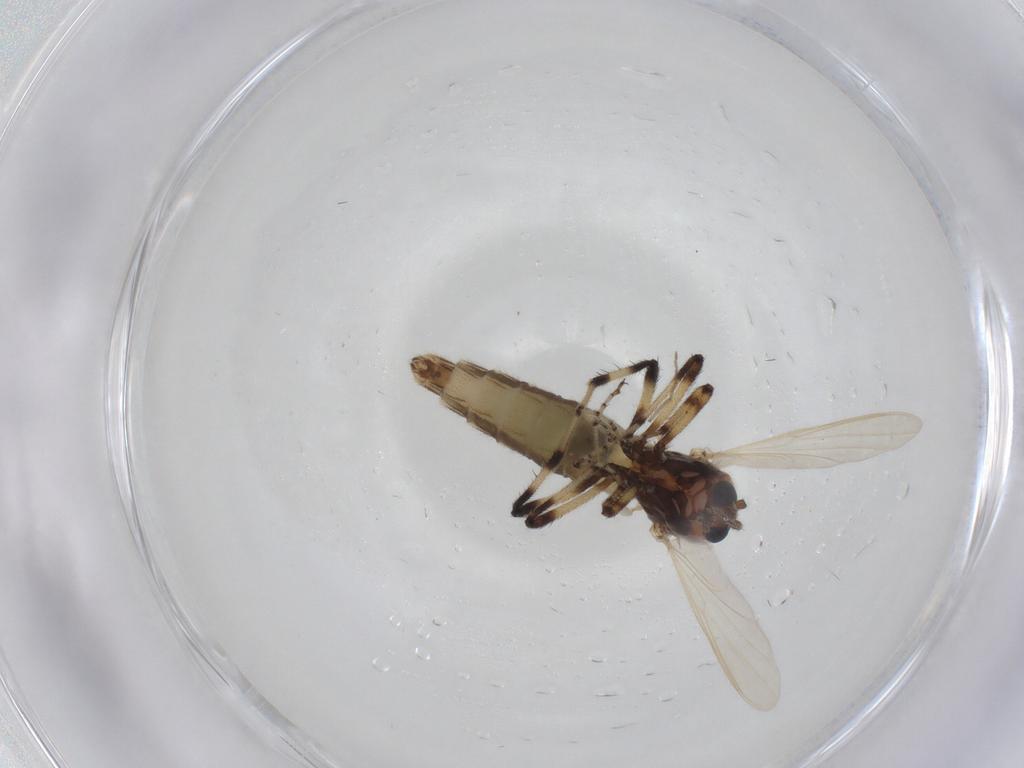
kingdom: Animalia
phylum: Arthropoda
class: Insecta
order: Diptera
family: Ceratopogonidae
